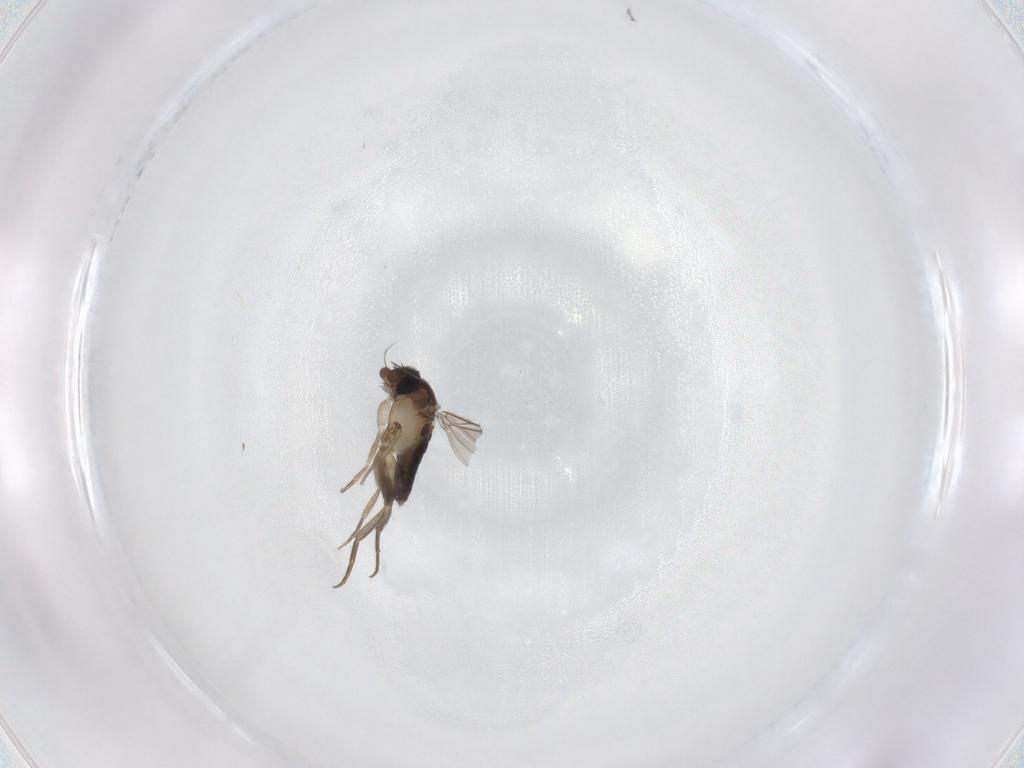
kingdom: Animalia
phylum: Arthropoda
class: Insecta
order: Diptera
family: Phoridae
